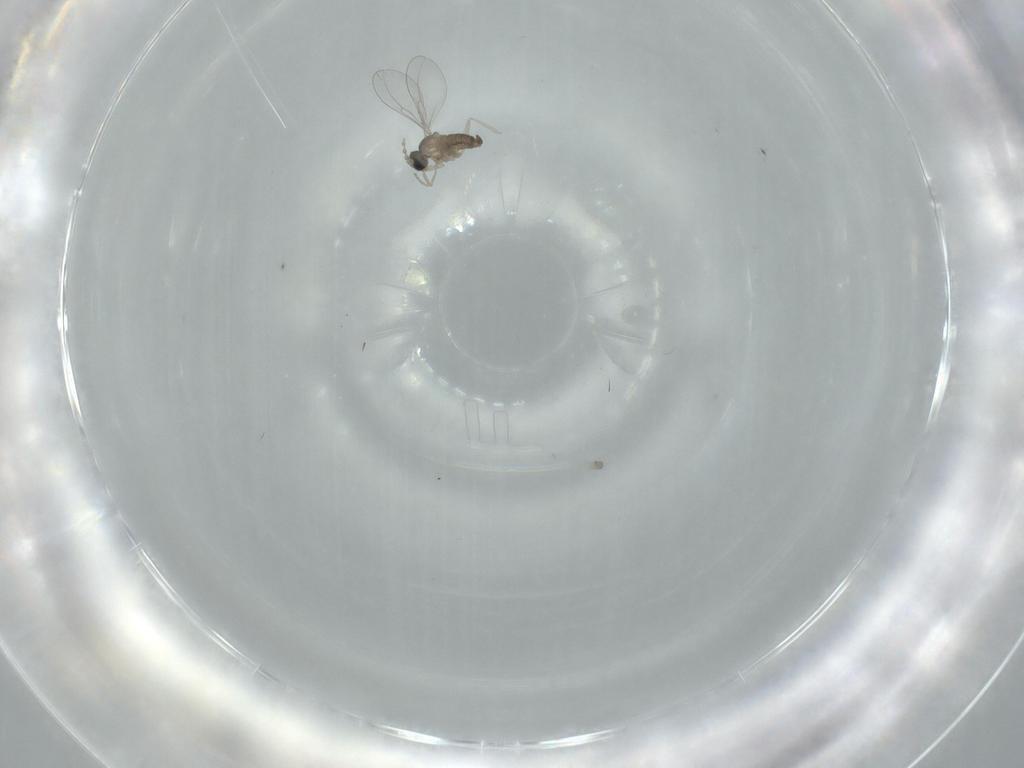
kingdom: Animalia
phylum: Arthropoda
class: Insecta
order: Diptera
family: Cecidomyiidae
